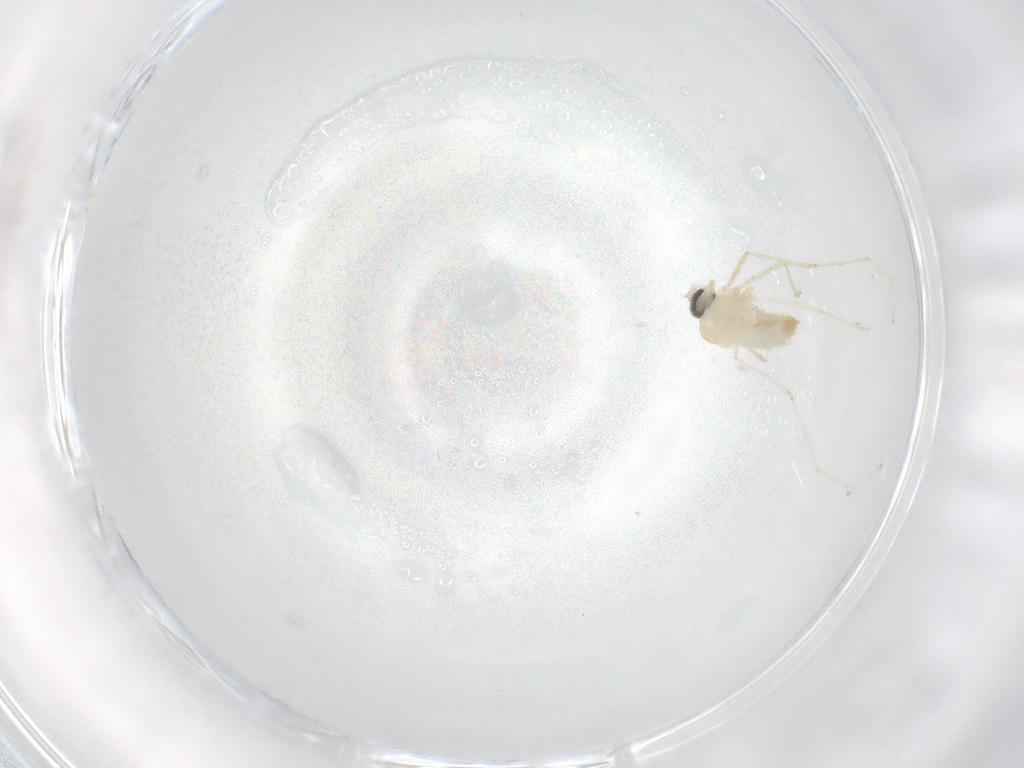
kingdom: Animalia
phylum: Arthropoda
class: Insecta
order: Diptera
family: Cecidomyiidae
